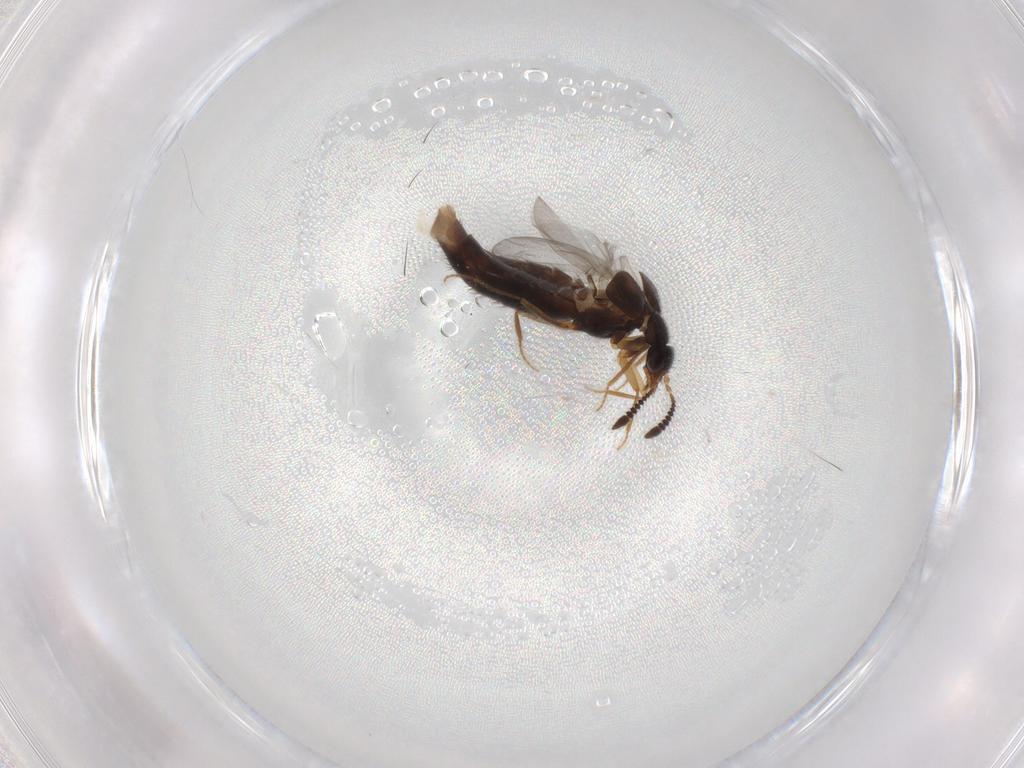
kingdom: Animalia
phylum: Arthropoda
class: Insecta
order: Coleoptera
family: Staphylinidae
